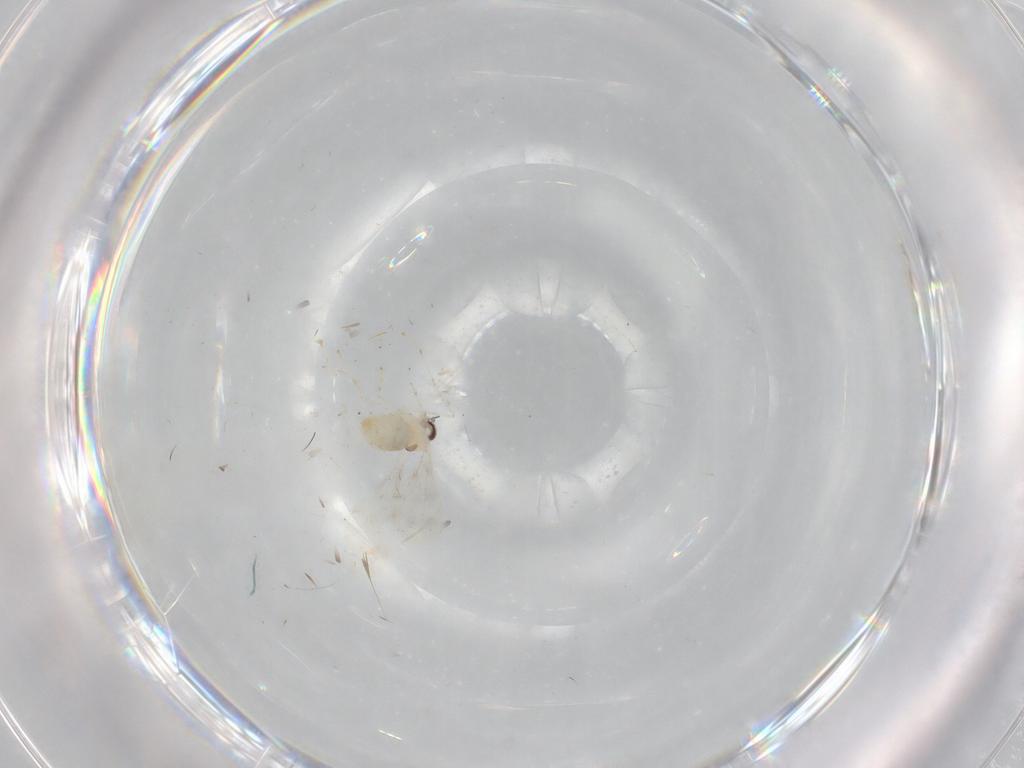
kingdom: Animalia
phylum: Arthropoda
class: Insecta
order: Diptera
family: Cecidomyiidae
